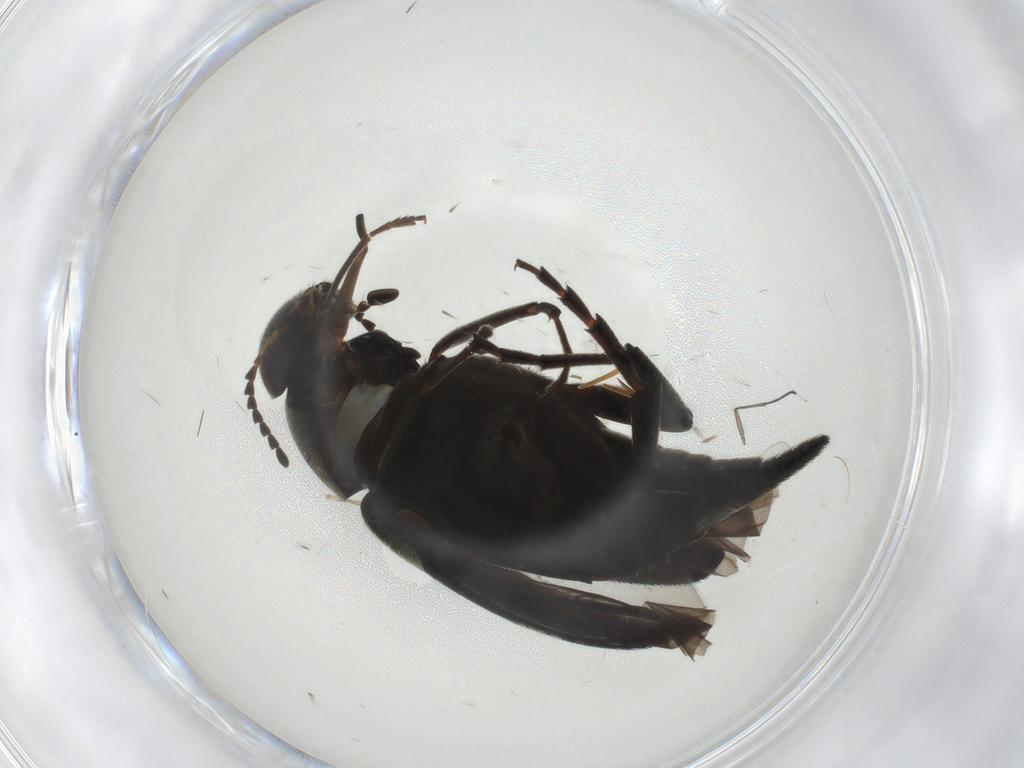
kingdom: Animalia
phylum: Arthropoda
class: Insecta
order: Coleoptera
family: Mordellidae
